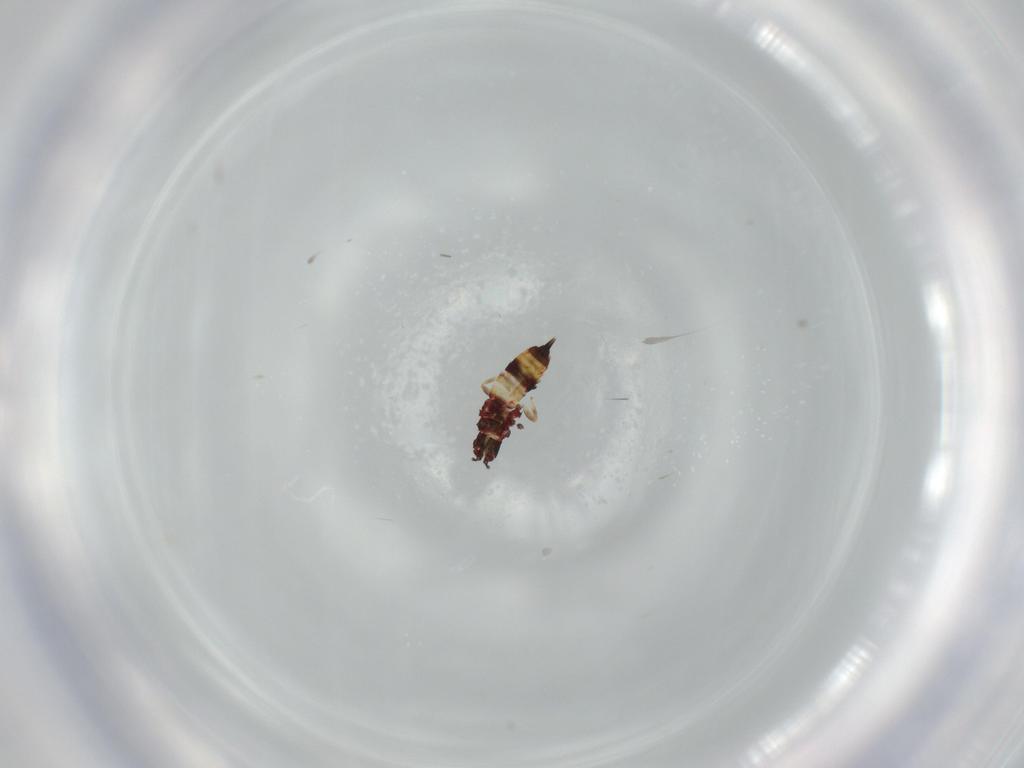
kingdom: Animalia
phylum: Arthropoda
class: Insecta
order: Thysanoptera
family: Phlaeothripidae
